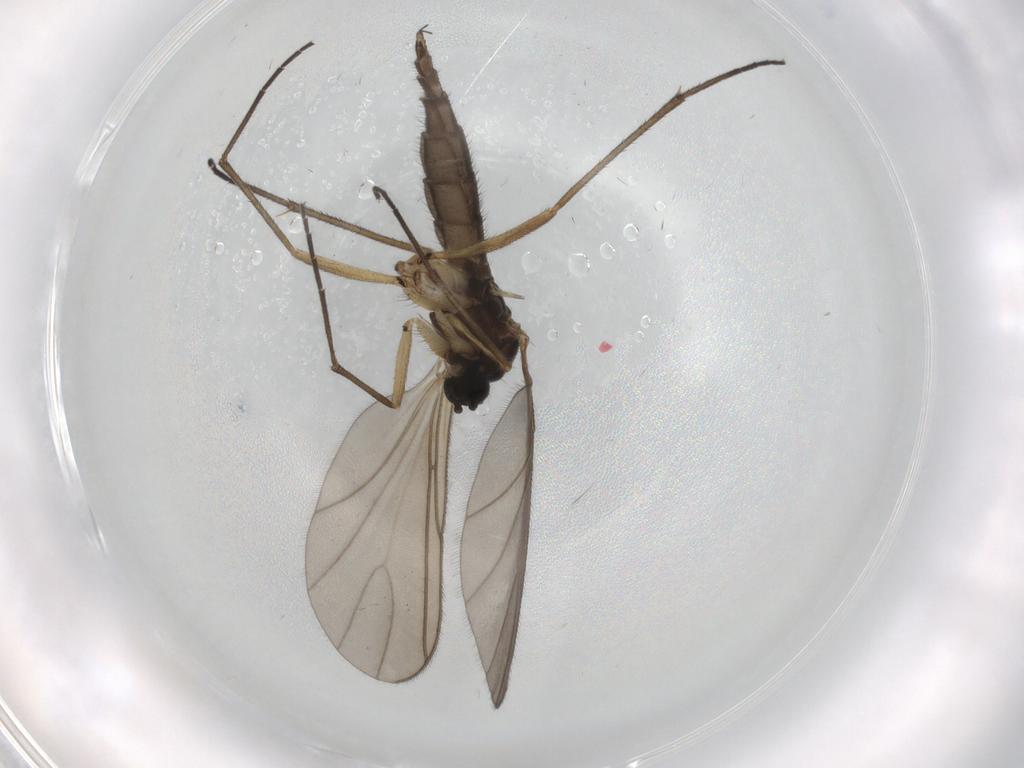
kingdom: Animalia
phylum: Arthropoda
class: Insecta
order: Diptera
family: Sciaridae
